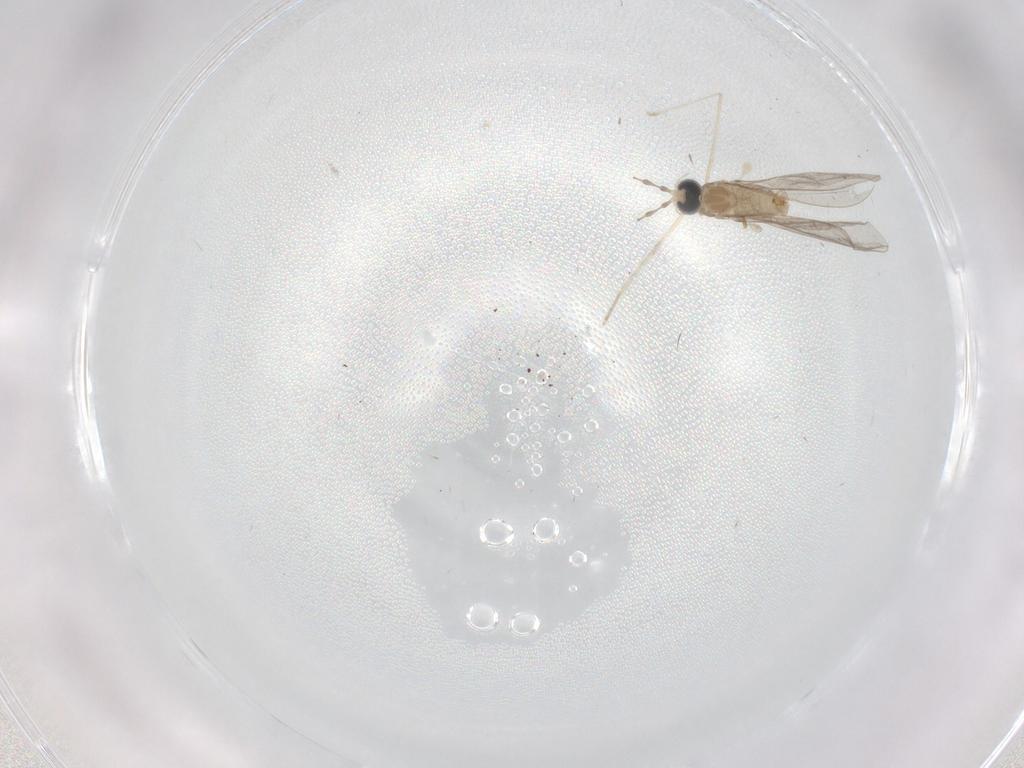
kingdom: Animalia
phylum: Arthropoda
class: Insecta
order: Diptera
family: Cecidomyiidae
